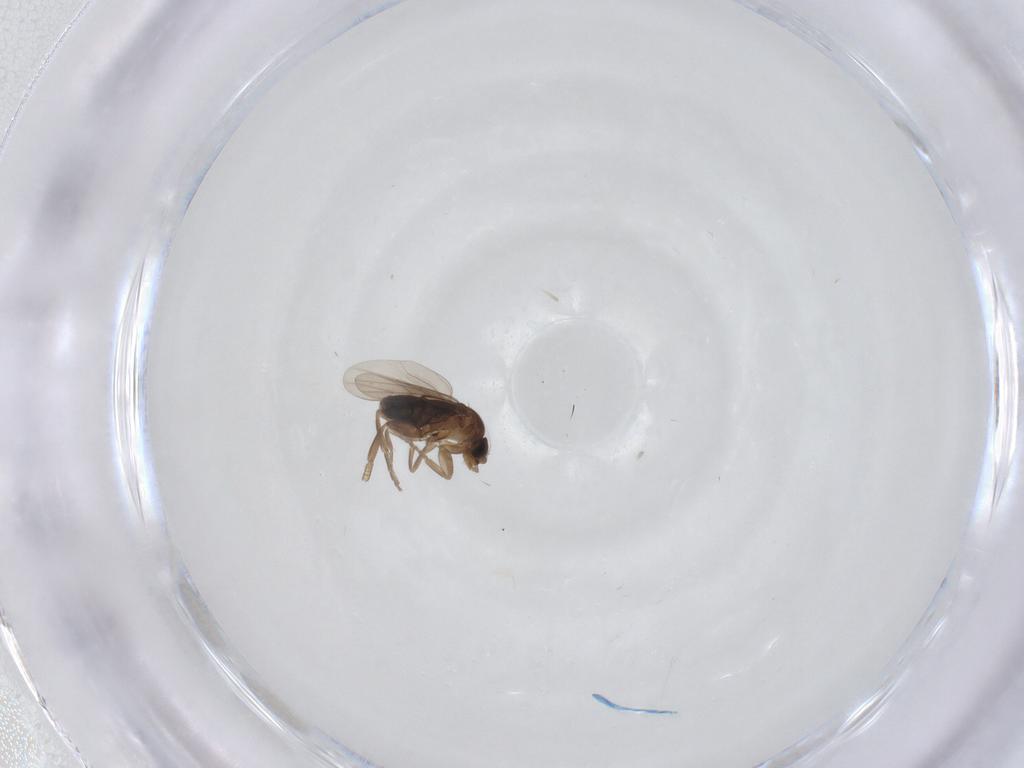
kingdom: Animalia
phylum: Arthropoda
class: Insecta
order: Diptera
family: Phoridae
